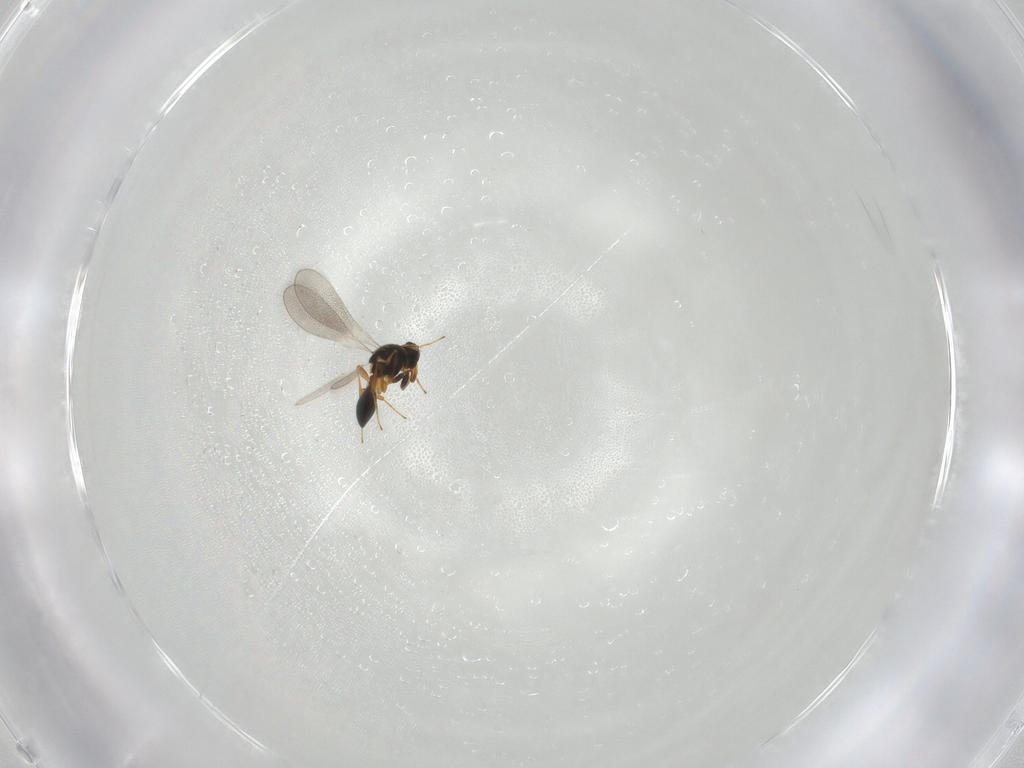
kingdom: Animalia
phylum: Arthropoda
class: Insecta
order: Hymenoptera
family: Platygastridae
